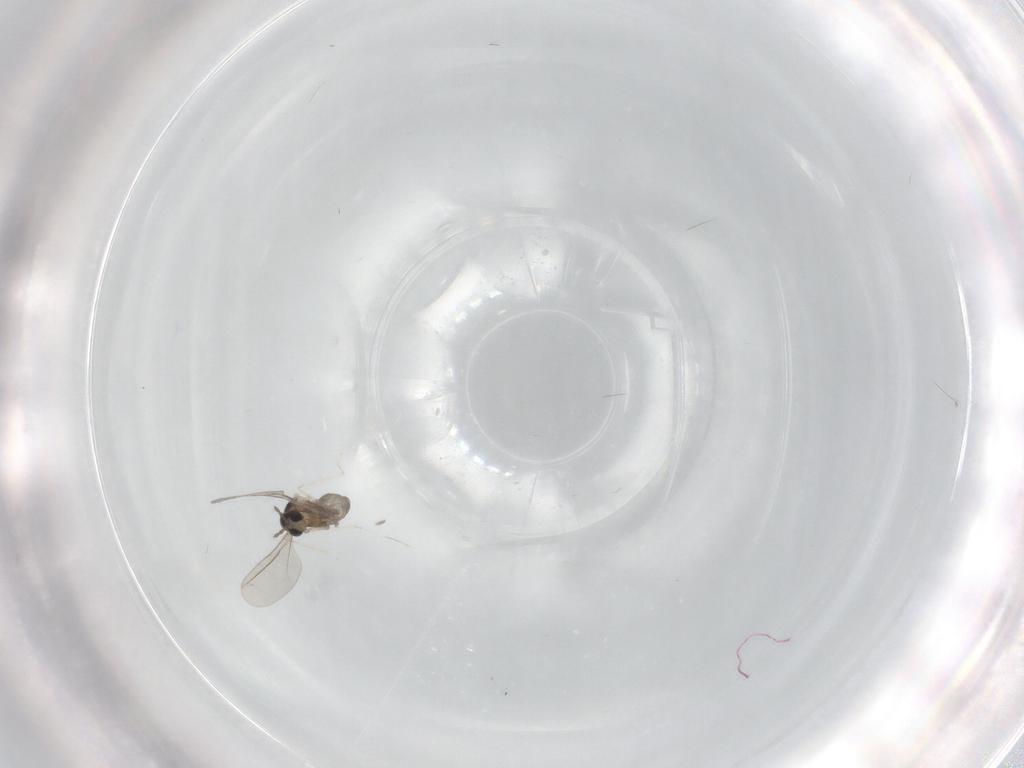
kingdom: Animalia
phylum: Arthropoda
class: Insecta
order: Diptera
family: Cecidomyiidae
